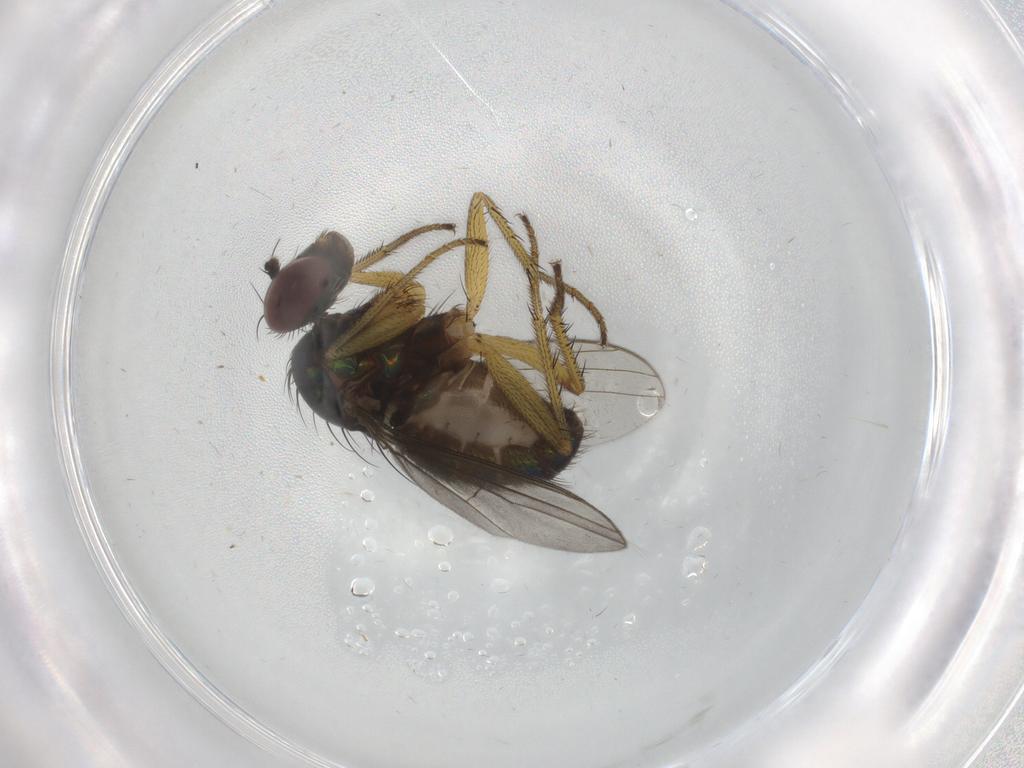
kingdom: Animalia
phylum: Arthropoda
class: Insecta
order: Diptera
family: Dolichopodidae
